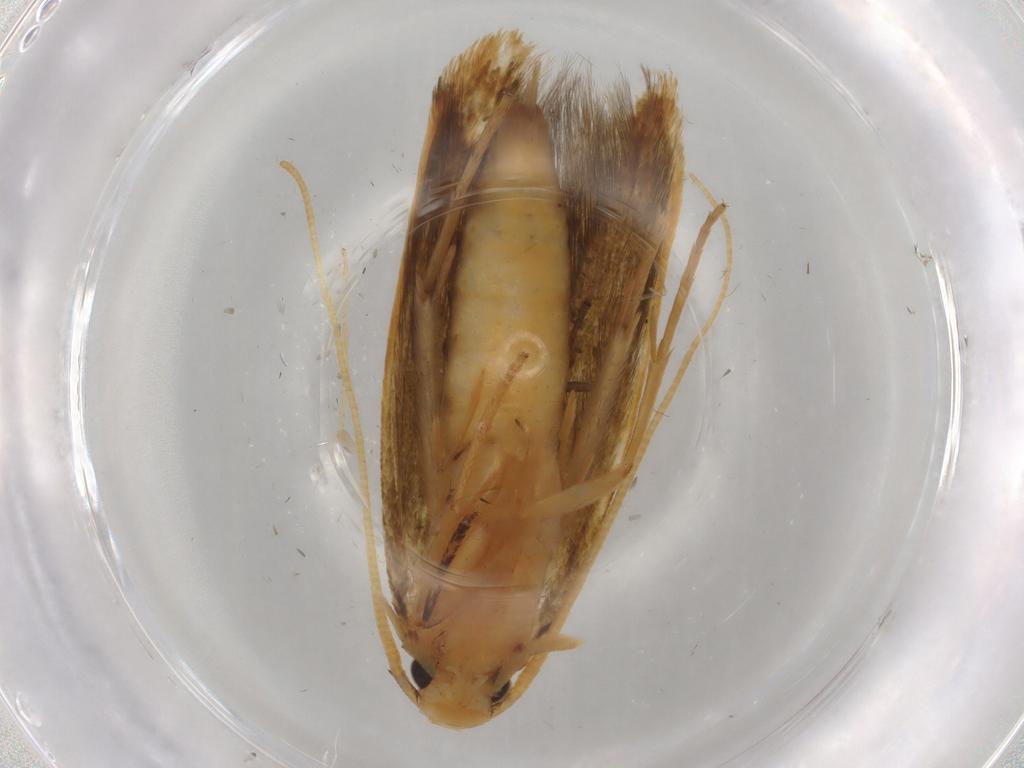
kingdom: Animalia
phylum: Arthropoda
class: Insecta
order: Lepidoptera
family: Tineidae
